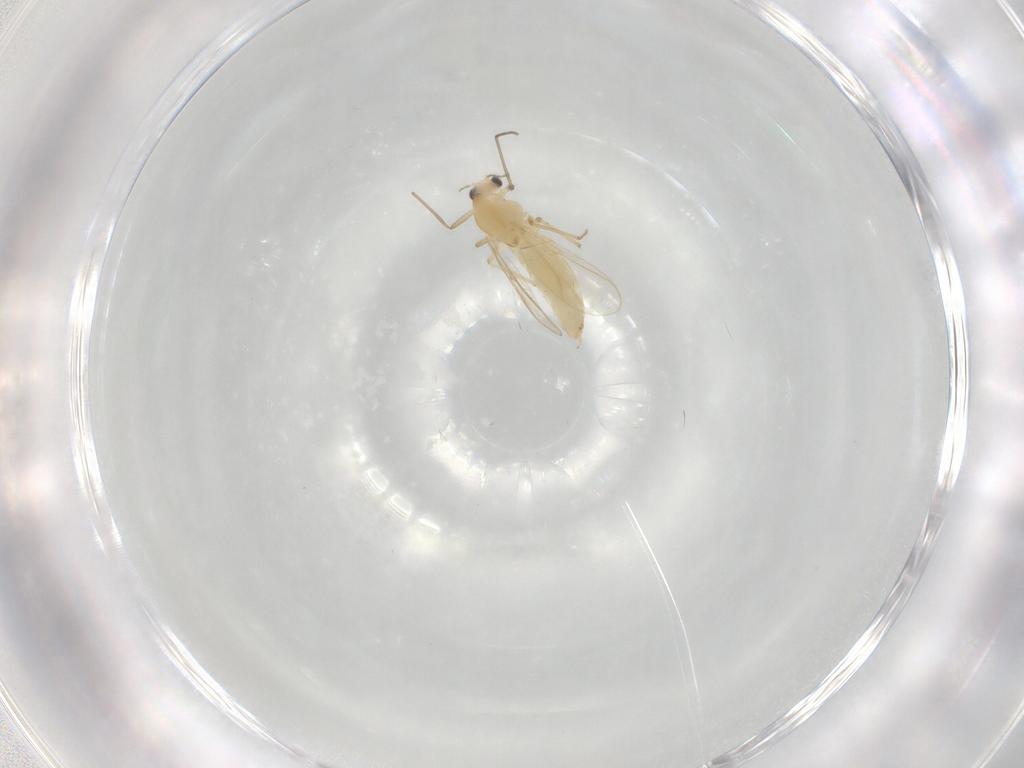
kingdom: Animalia
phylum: Arthropoda
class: Insecta
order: Diptera
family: Chironomidae
